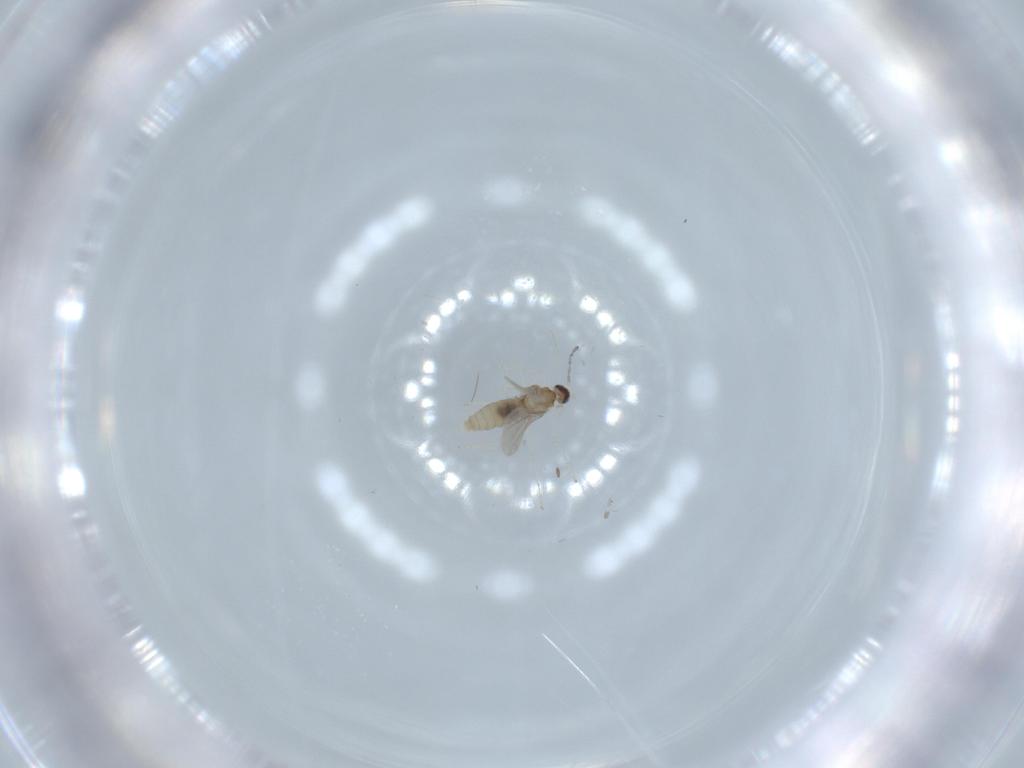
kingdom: Animalia
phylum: Arthropoda
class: Insecta
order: Diptera
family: Cecidomyiidae
